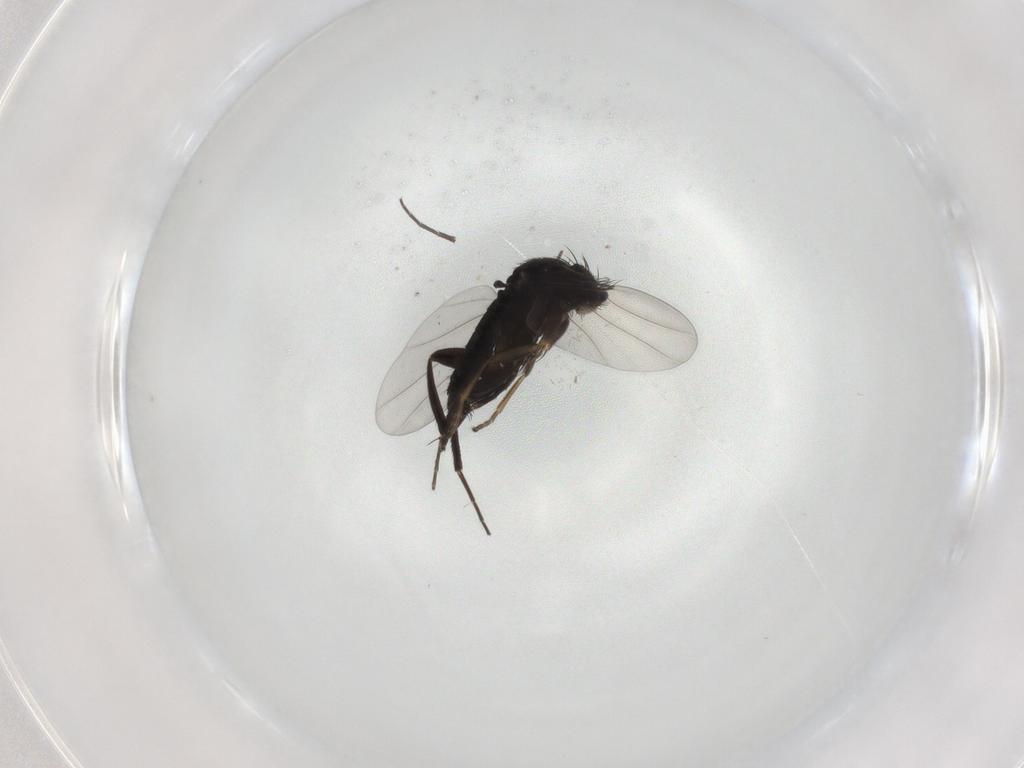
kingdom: Animalia
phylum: Arthropoda
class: Insecta
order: Diptera
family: Phoridae
